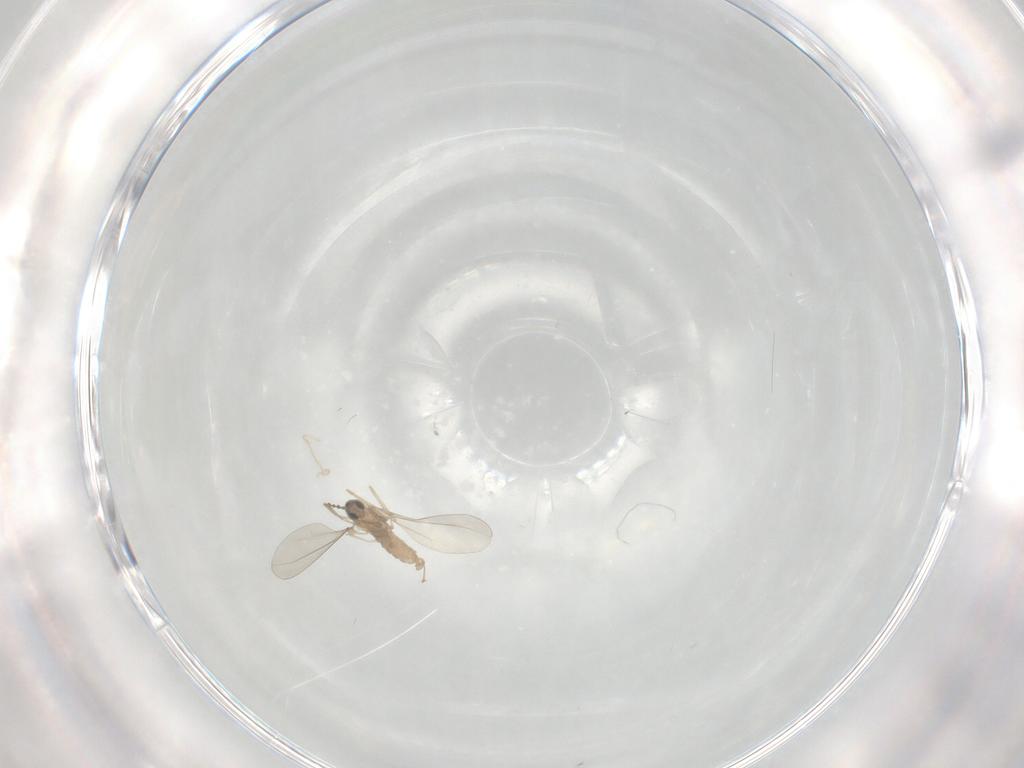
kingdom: Animalia
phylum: Arthropoda
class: Insecta
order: Diptera
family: Cecidomyiidae
